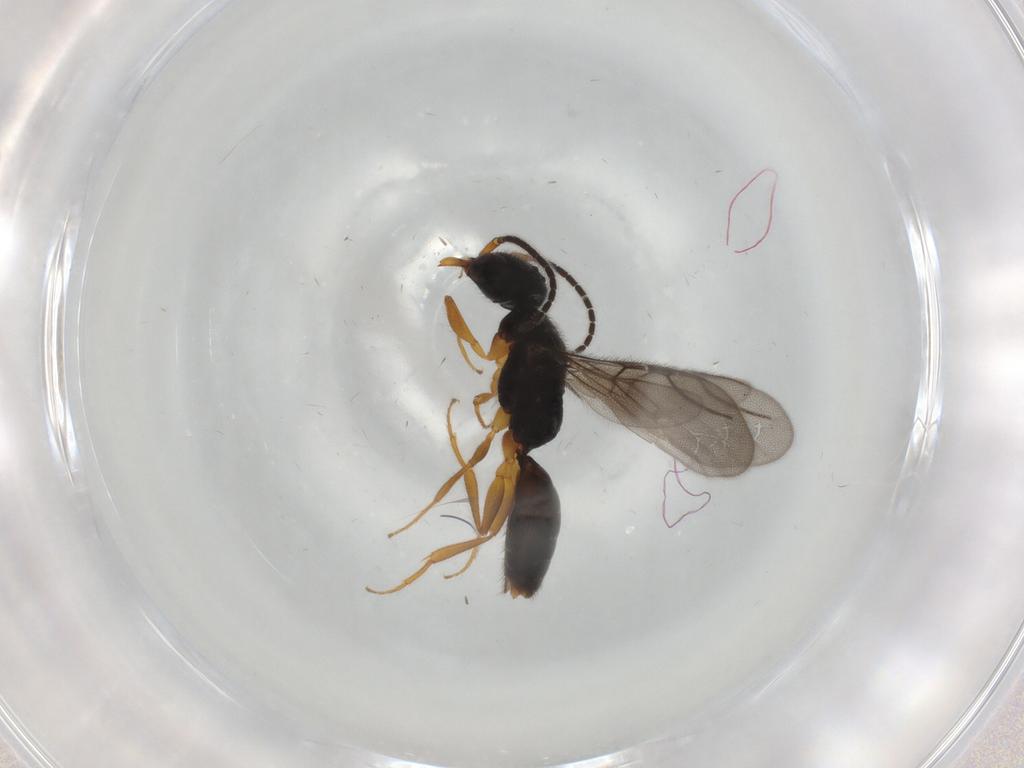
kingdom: Animalia
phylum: Arthropoda
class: Insecta
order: Hymenoptera
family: Bethylidae
